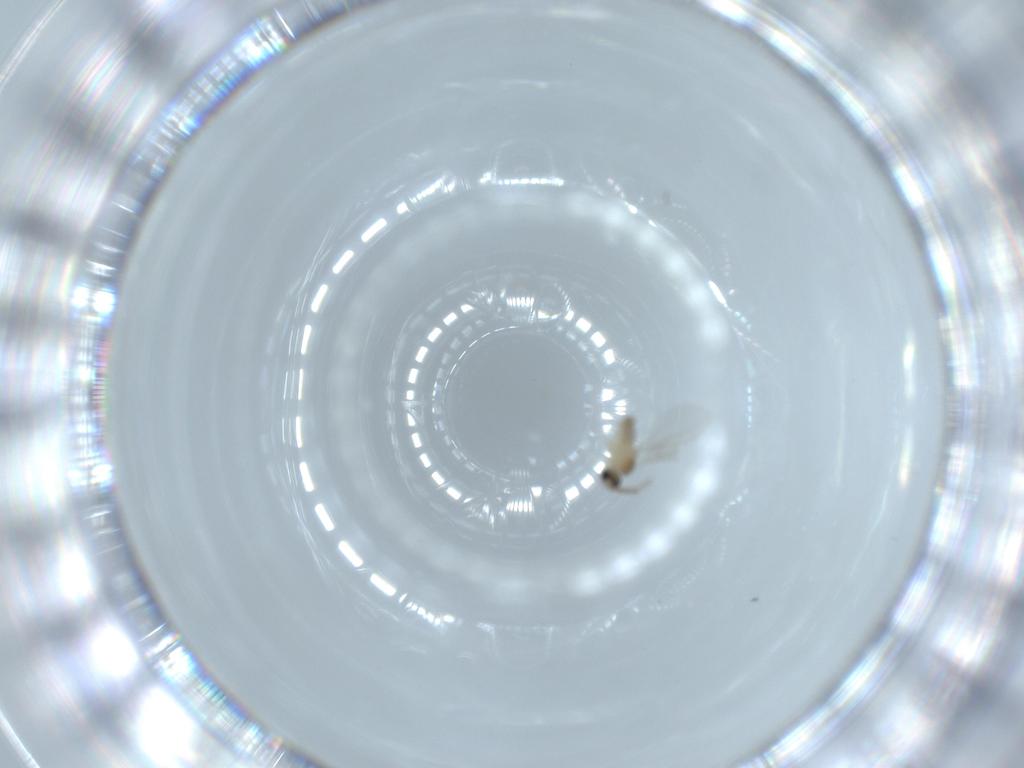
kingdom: Animalia
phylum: Arthropoda
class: Insecta
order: Diptera
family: Cecidomyiidae
